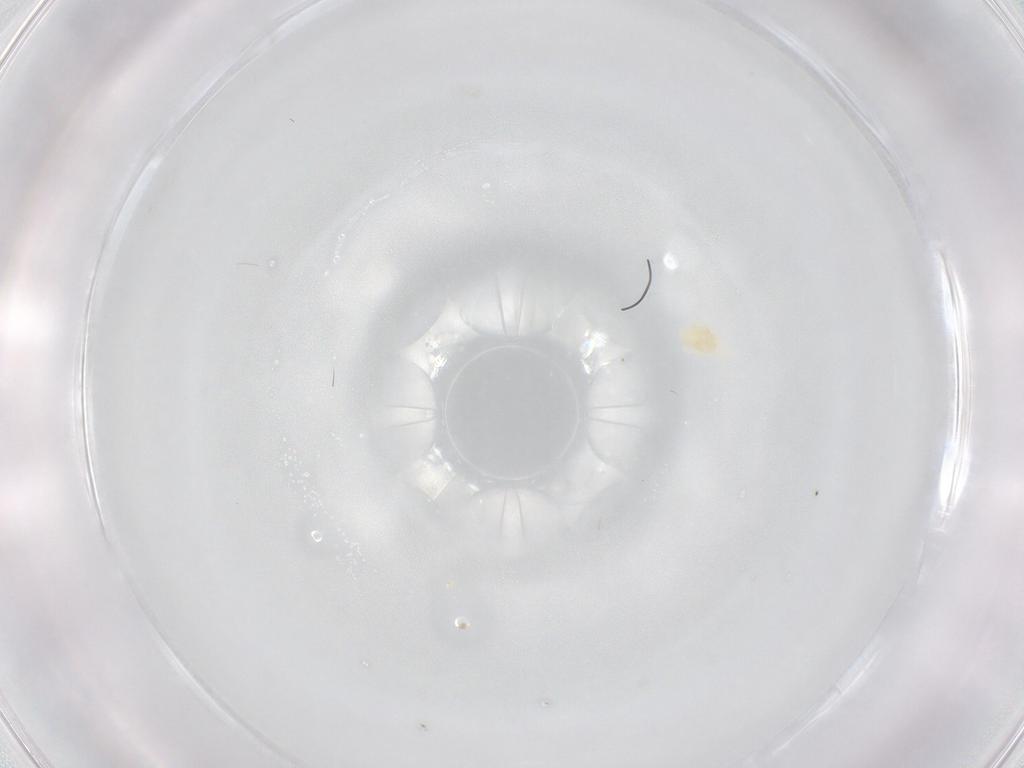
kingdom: Animalia
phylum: Arthropoda
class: Arachnida
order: Trombidiformes
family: Eupodidae
